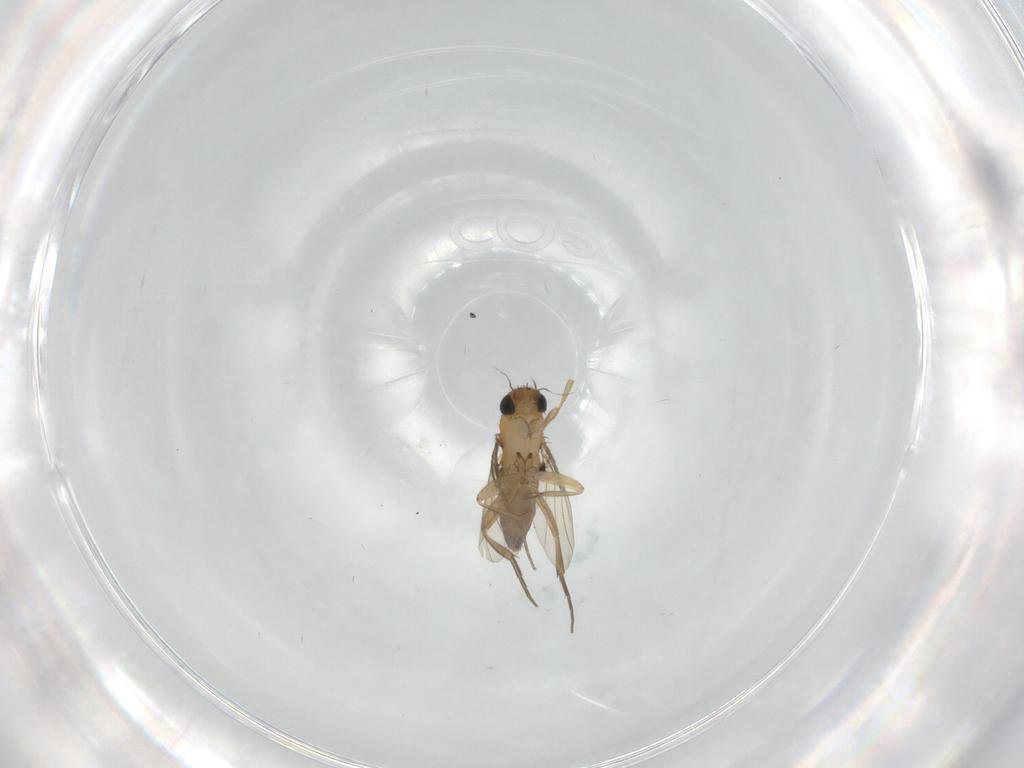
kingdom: Animalia
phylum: Arthropoda
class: Insecta
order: Diptera
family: Phoridae
